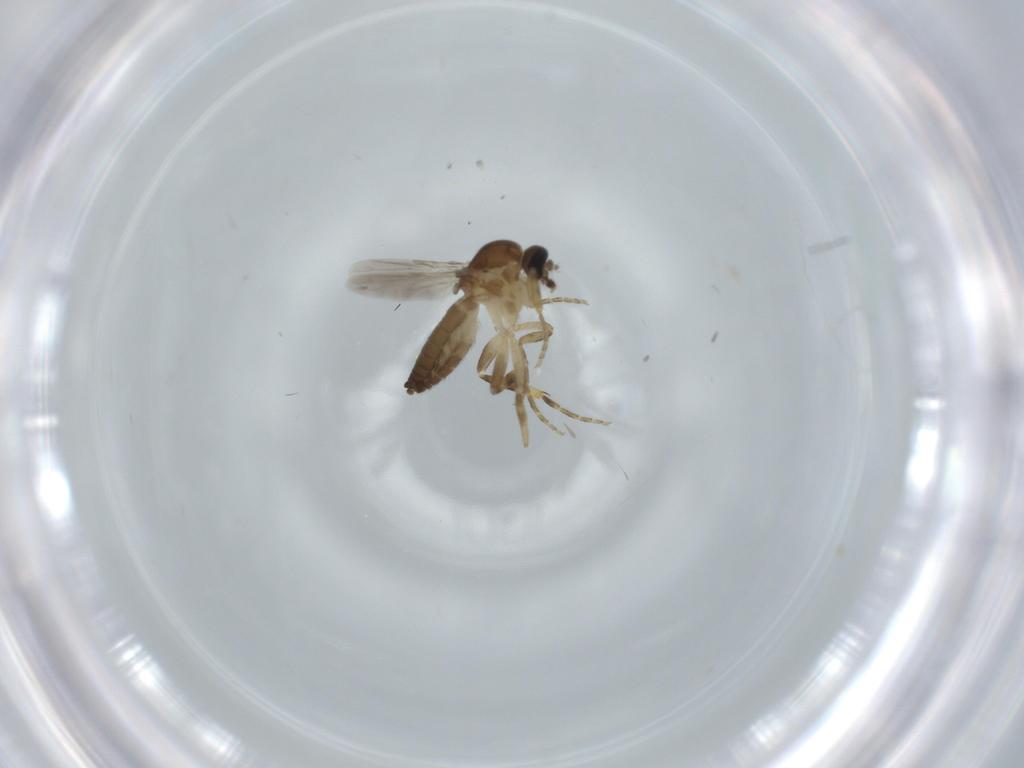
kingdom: Animalia
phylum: Arthropoda
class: Insecta
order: Diptera
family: Ceratopogonidae
